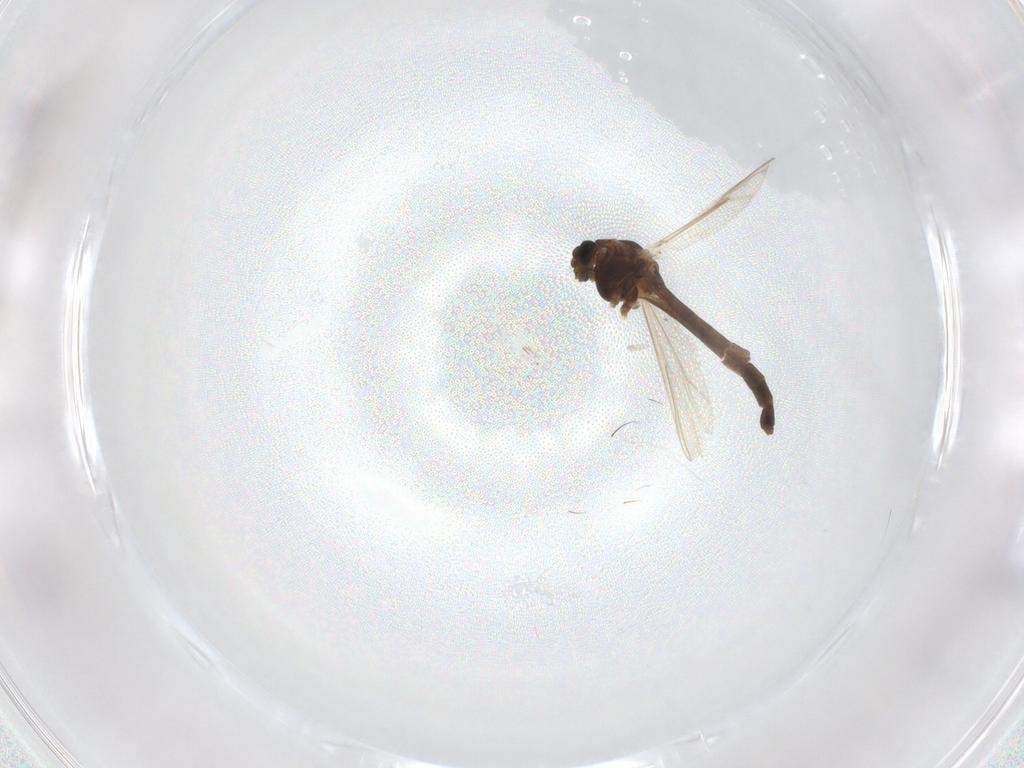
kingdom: Animalia
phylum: Arthropoda
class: Insecta
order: Diptera
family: Chironomidae
